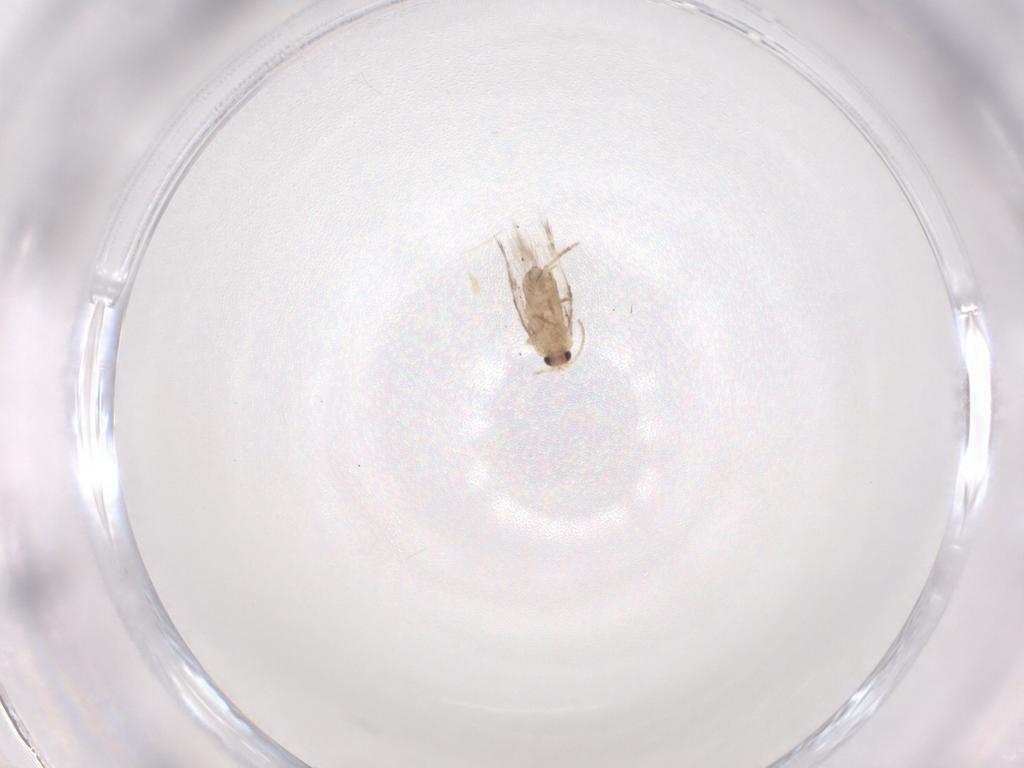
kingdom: Animalia
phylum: Arthropoda
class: Insecta
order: Lepidoptera
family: Nepticulidae
